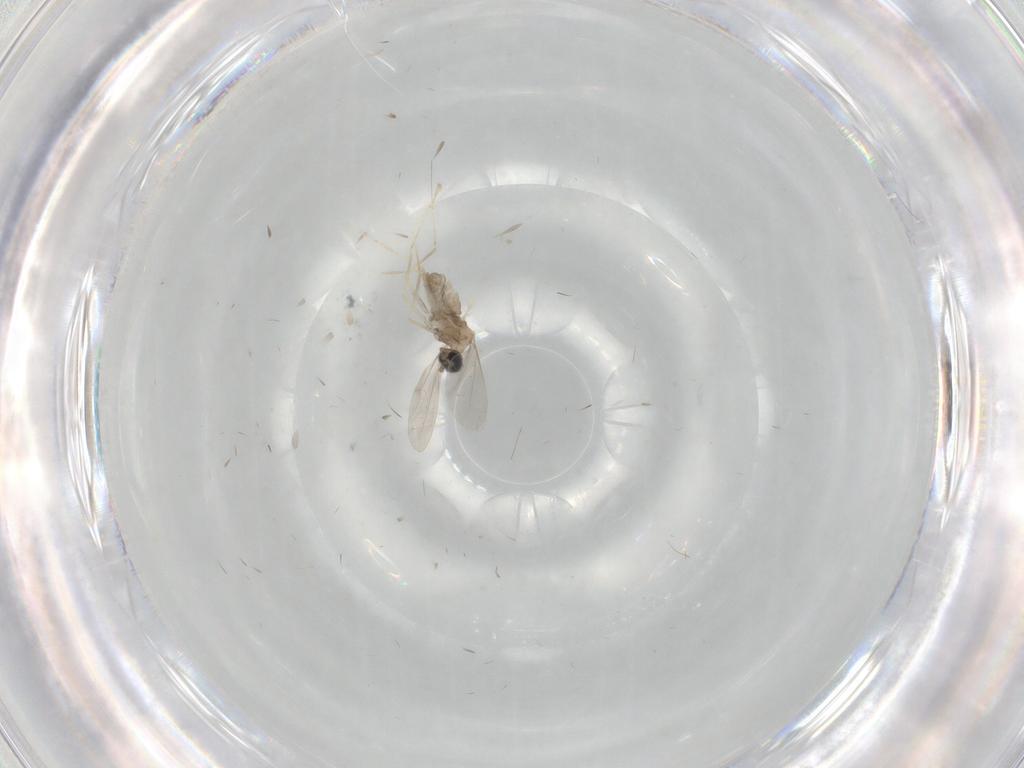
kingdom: Animalia
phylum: Arthropoda
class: Insecta
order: Diptera
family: Cecidomyiidae
